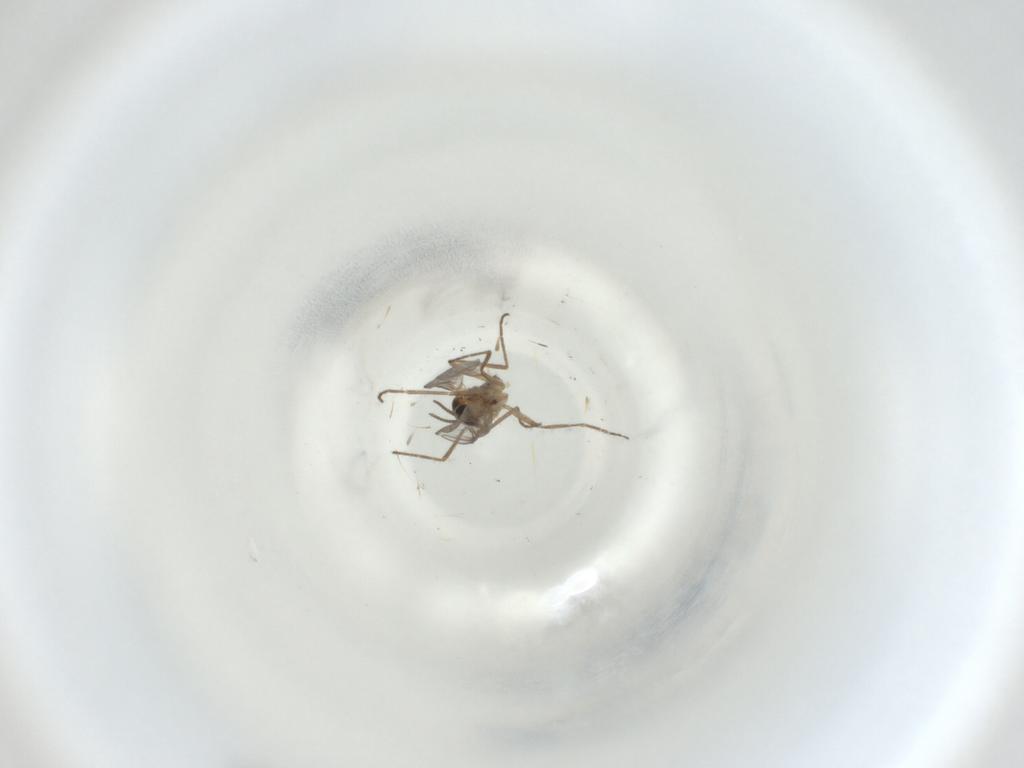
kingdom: Animalia
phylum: Arthropoda
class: Insecta
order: Diptera
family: Cecidomyiidae
